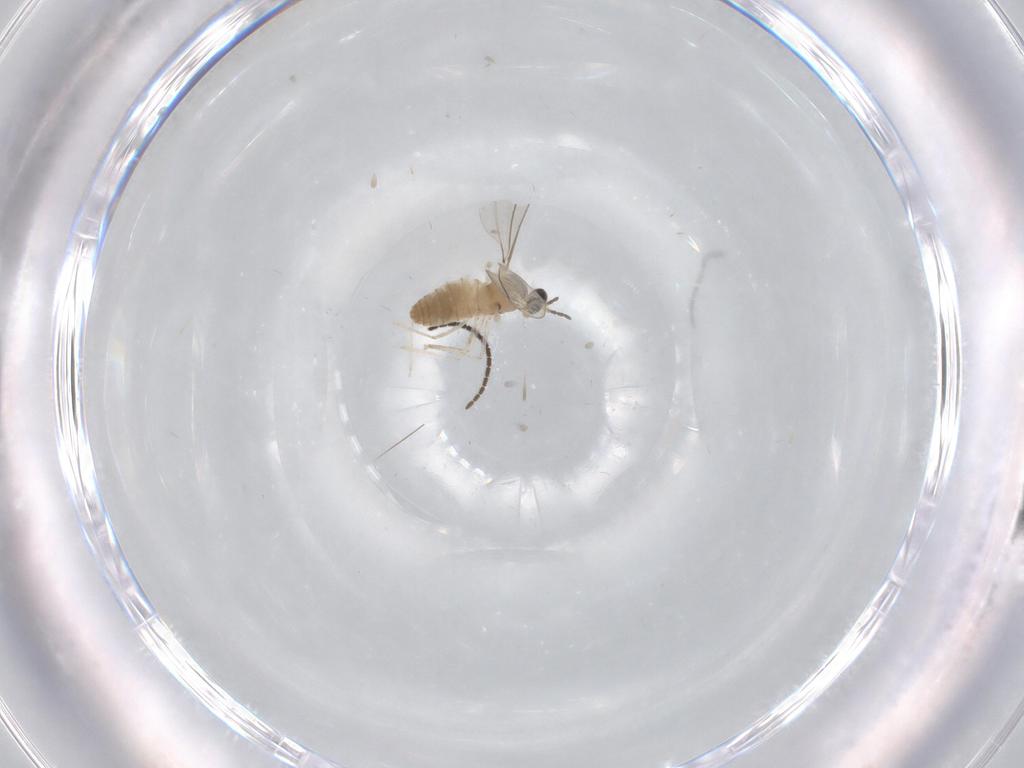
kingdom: Animalia
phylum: Arthropoda
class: Insecta
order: Diptera
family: Cecidomyiidae
